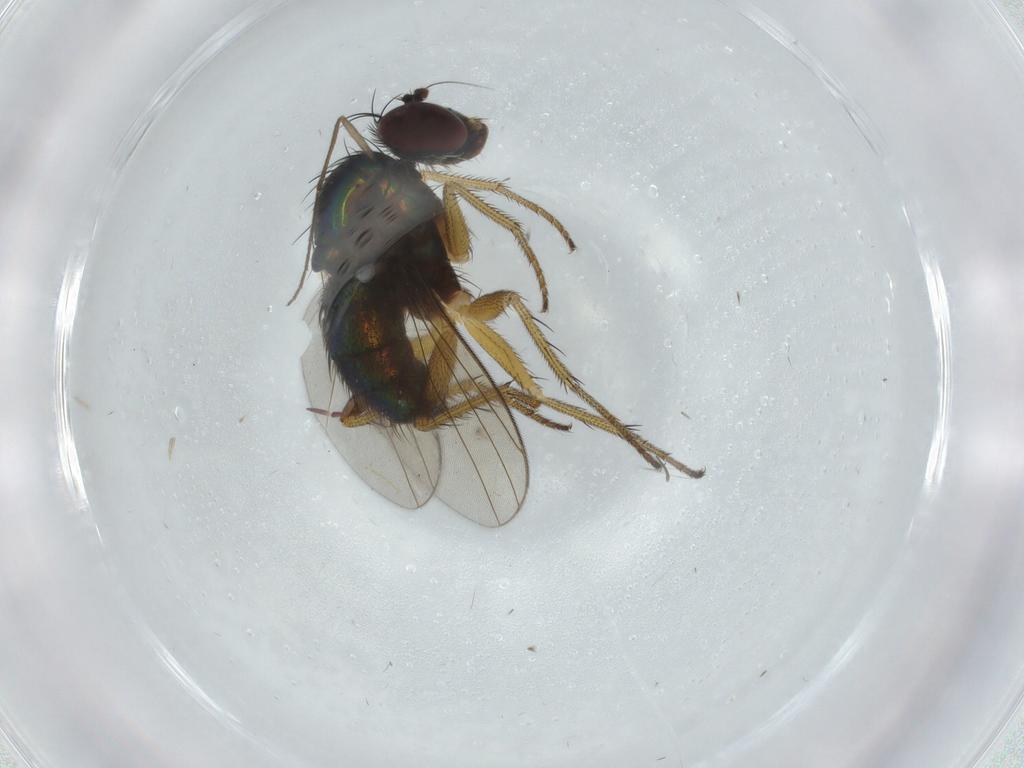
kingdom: Animalia
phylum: Arthropoda
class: Insecta
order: Diptera
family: Dolichopodidae
